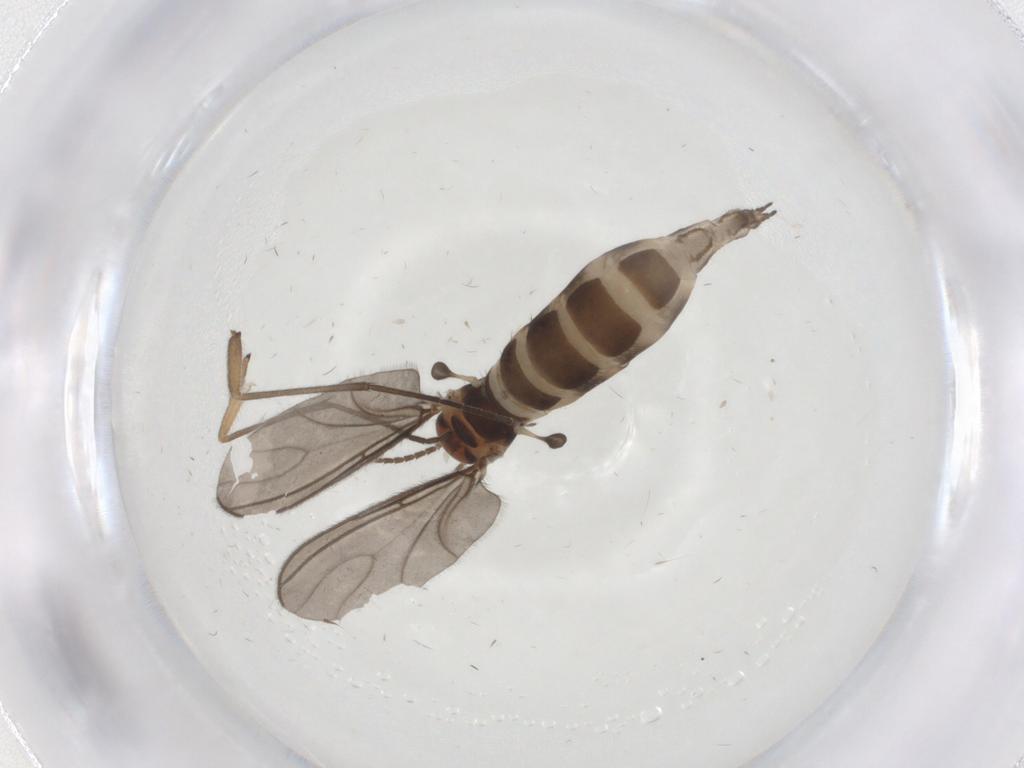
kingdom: Animalia
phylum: Arthropoda
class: Insecta
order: Diptera
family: Sciaridae
